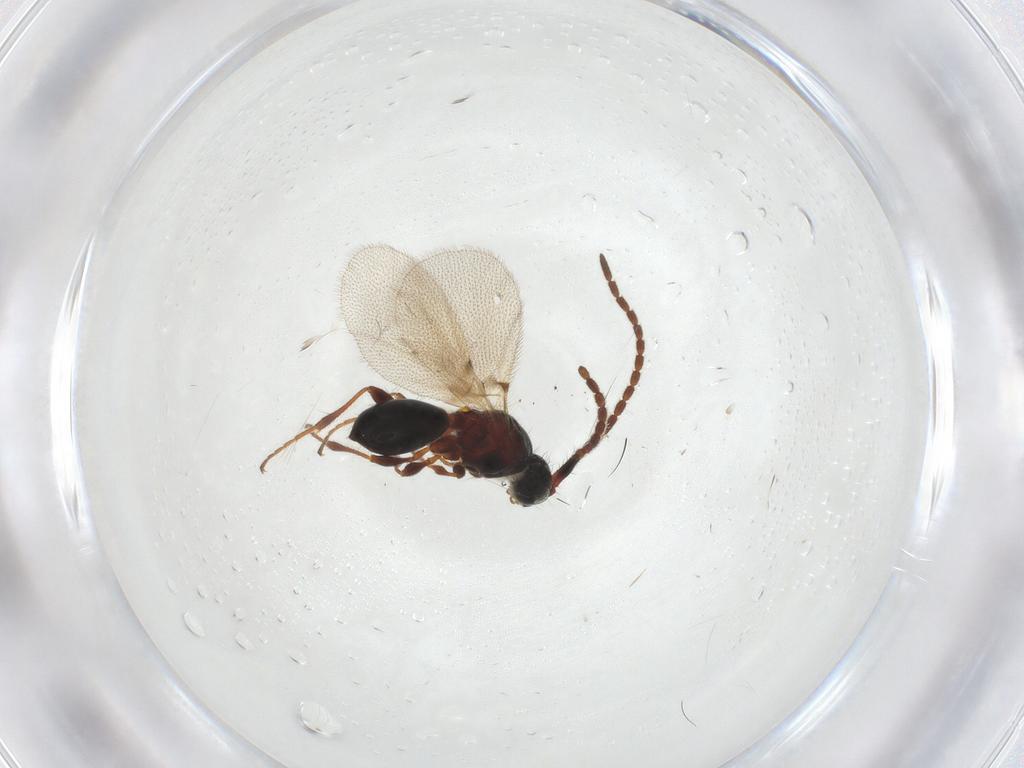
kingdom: Animalia
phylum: Arthropoda
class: Insecta
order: Hymenoptera
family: Diapriidae
